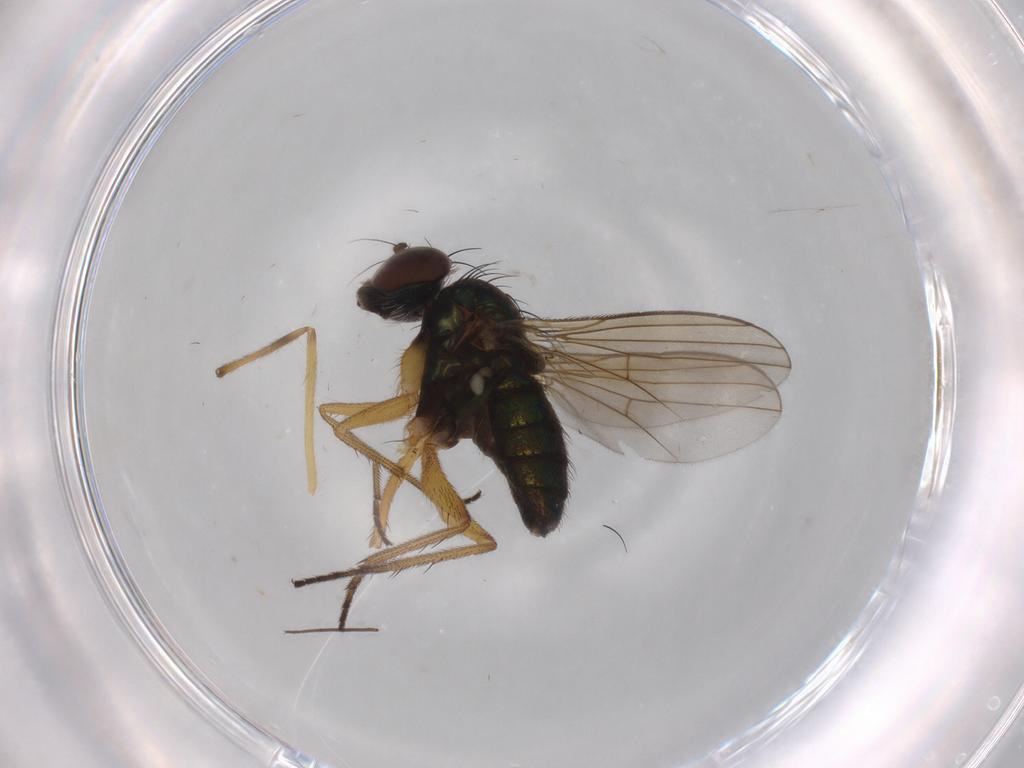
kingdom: Animalia
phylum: Arthropoda
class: Insecta
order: Diptera
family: Dolichopodidae
